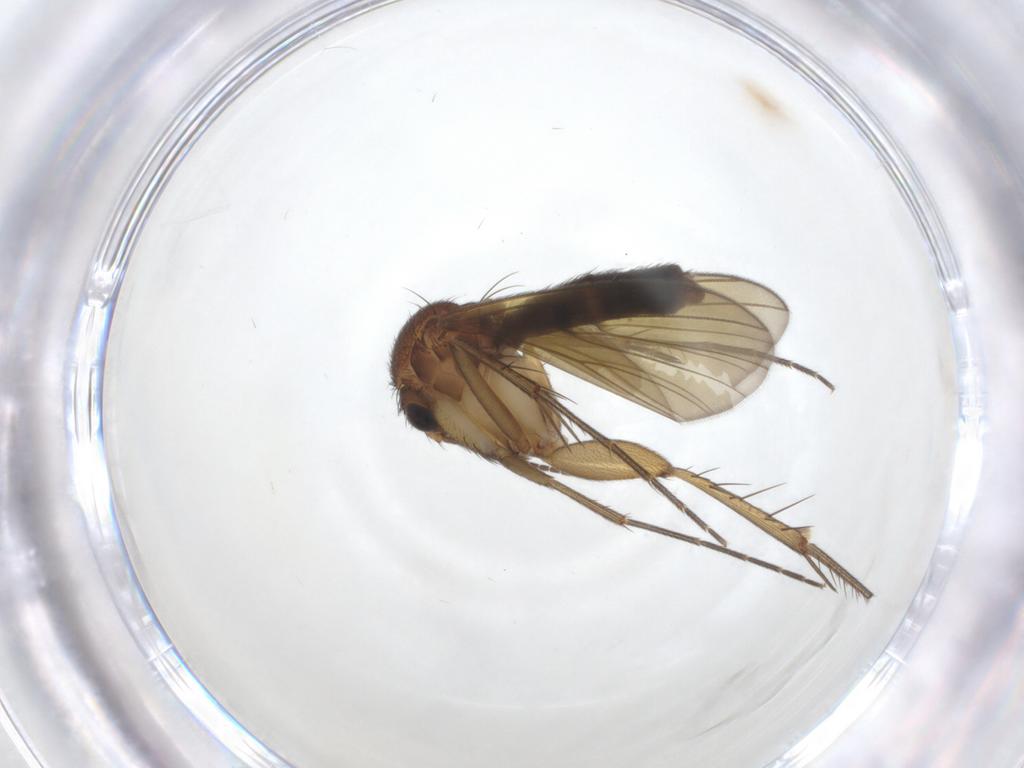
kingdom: Animalia
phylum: Arthropoda
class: Insecta
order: Diptera
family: Mycetophilidae
